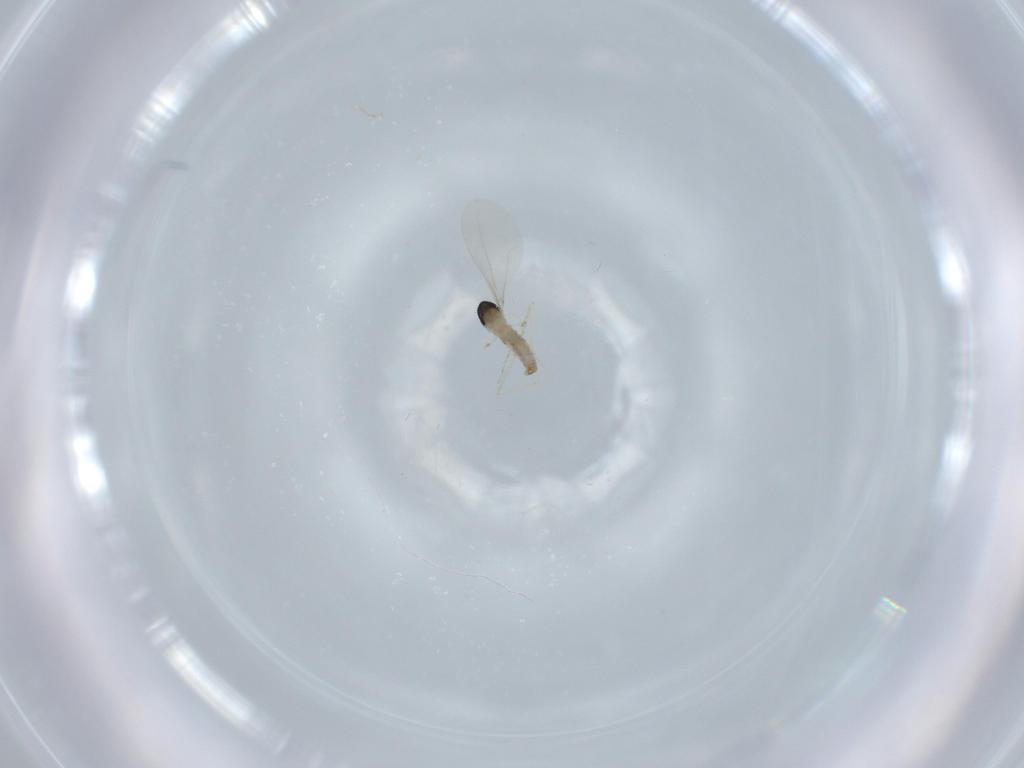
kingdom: Animalia
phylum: Arthropoda
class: Insecta
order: Diptera
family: Cecidomyiidae
